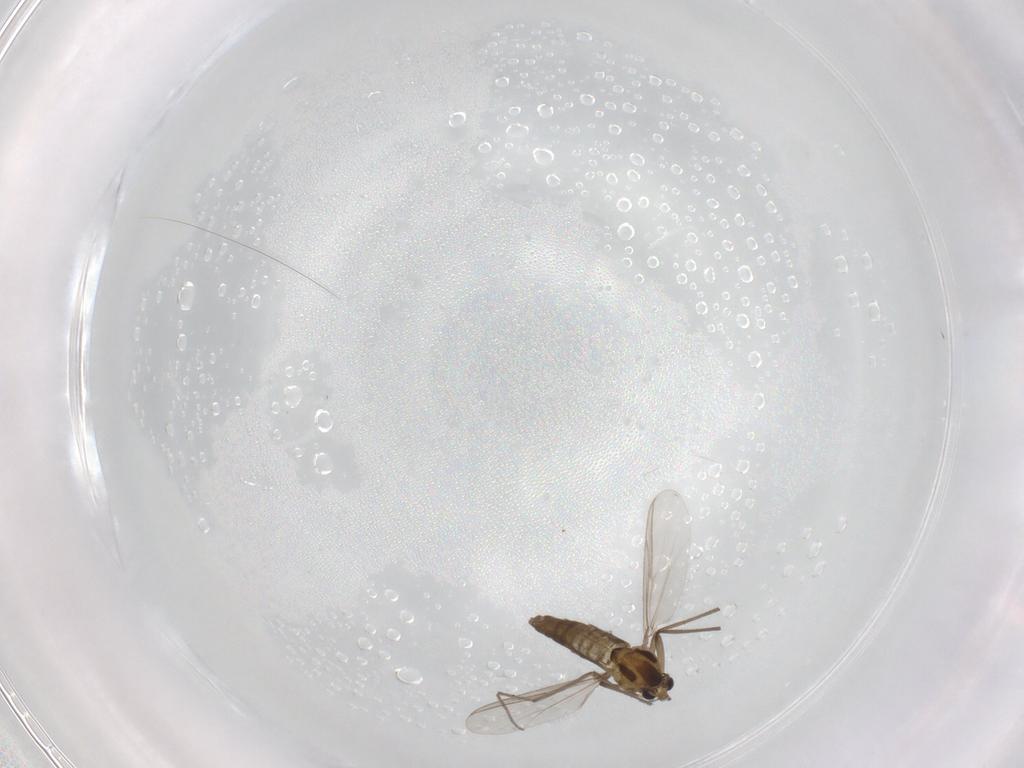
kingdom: Animalia
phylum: Arthropoda
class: Insecta
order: Diptera
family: Chironomidae
